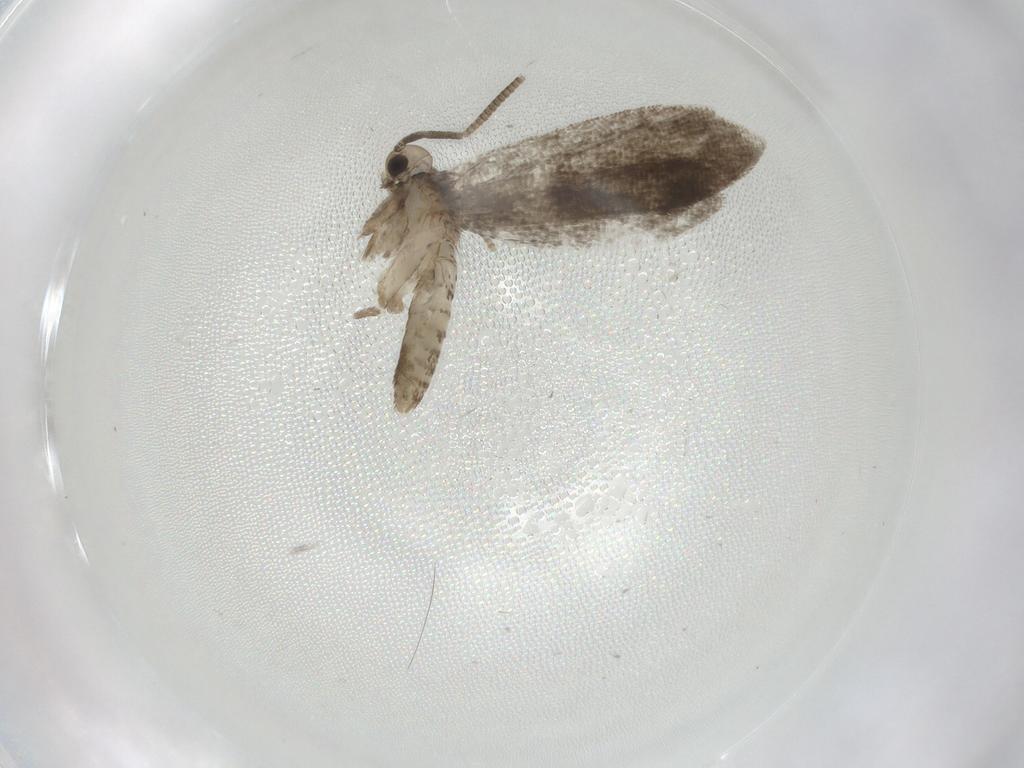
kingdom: Animalia
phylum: Arthropoda
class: Insecta
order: Lepidoptera
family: Nymphalidae
